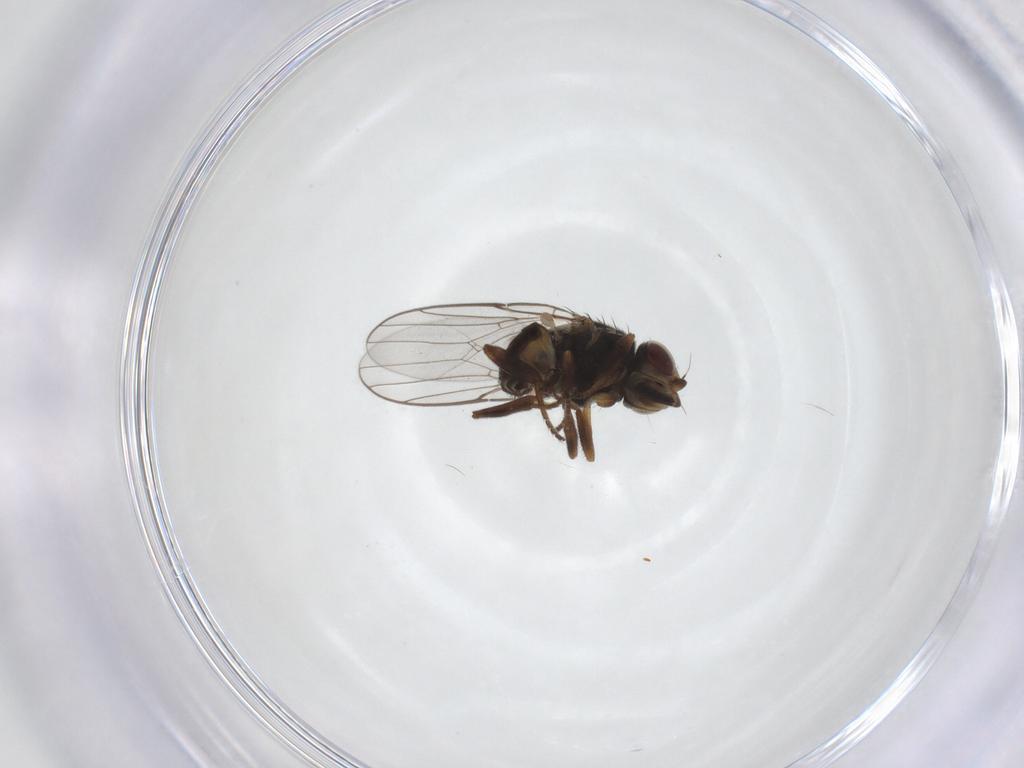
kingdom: Animalia
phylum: Arthropoda
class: Insecta
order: Diptera
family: Chloropidae
